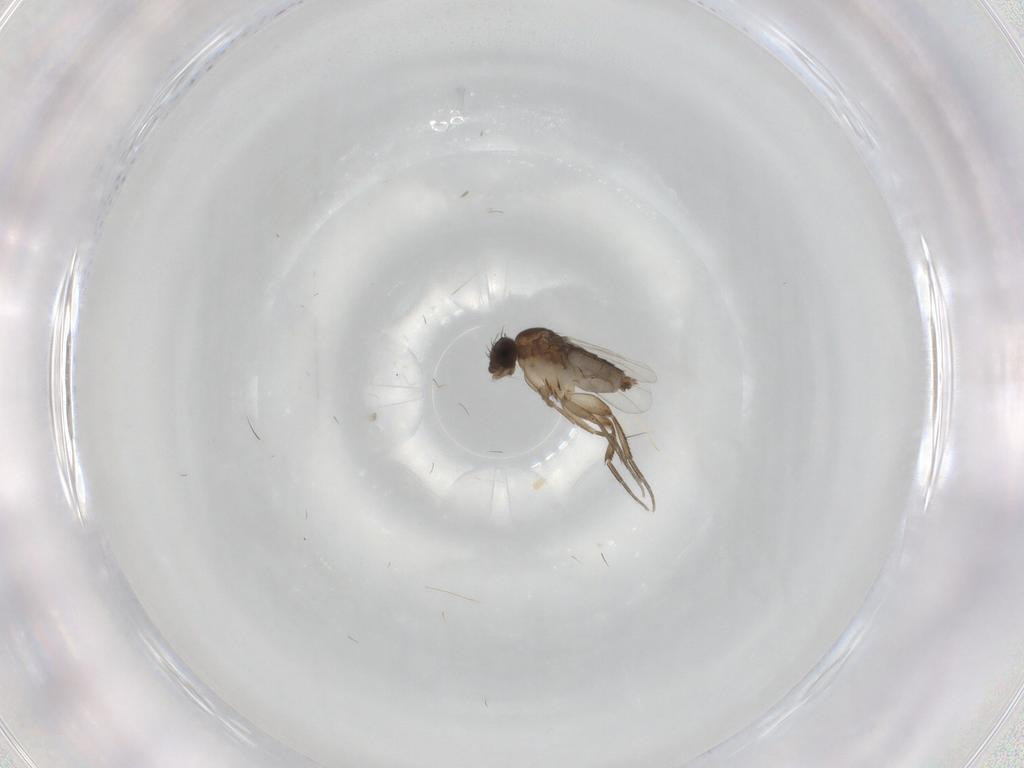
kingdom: Animalia
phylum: Arthropoda
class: Insecta
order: Diptera
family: Phoridae
